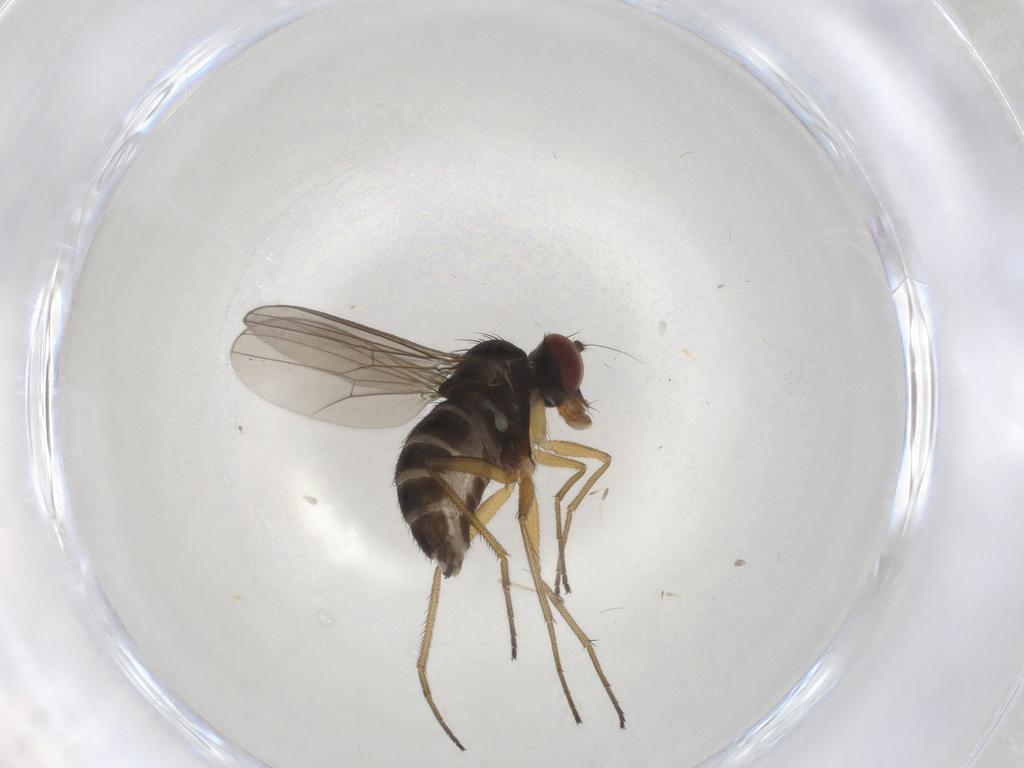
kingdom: Animalia
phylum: Arthropoda
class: Insecta
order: Diptera
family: Dolichopodidae
